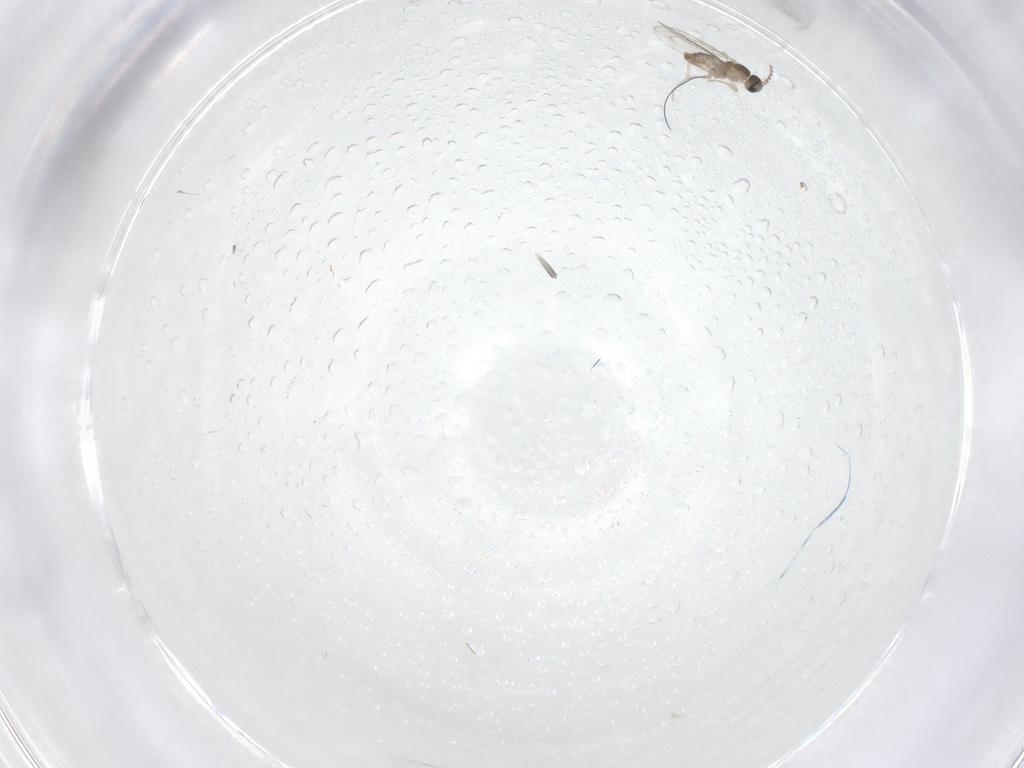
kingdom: Animalia
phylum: Arthropoda
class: Insecta
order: Diptera
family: Cecidomyiidae
